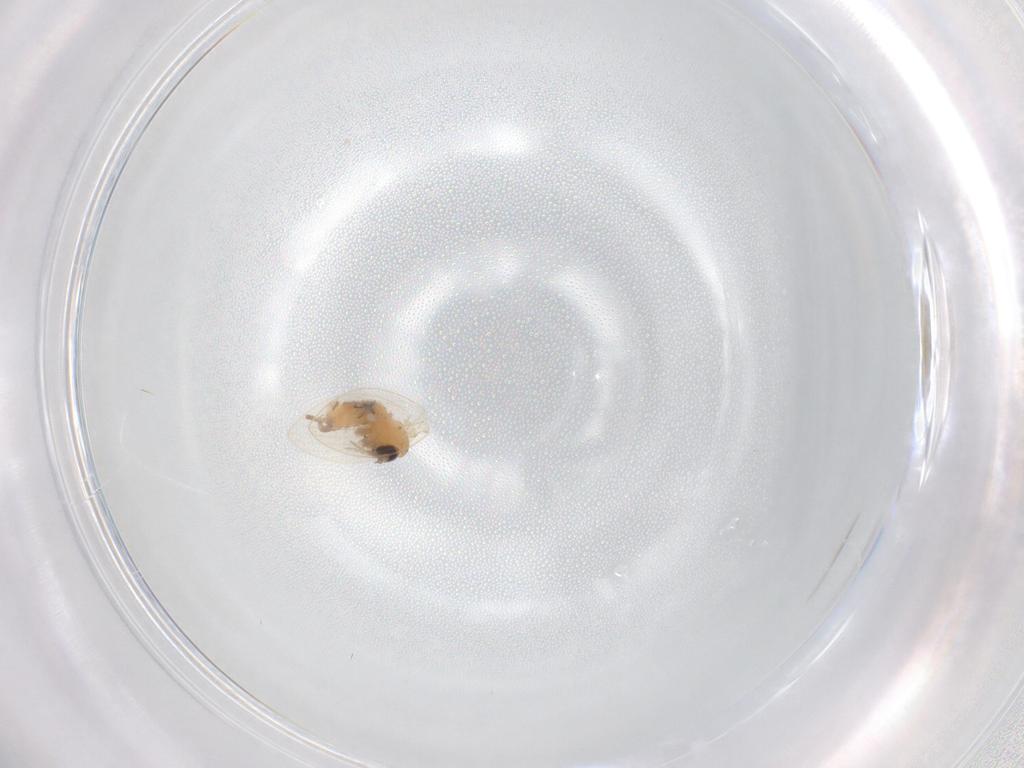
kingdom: Animalia
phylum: Arthropoda
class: Insecta
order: Diptera
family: Psychodidae
